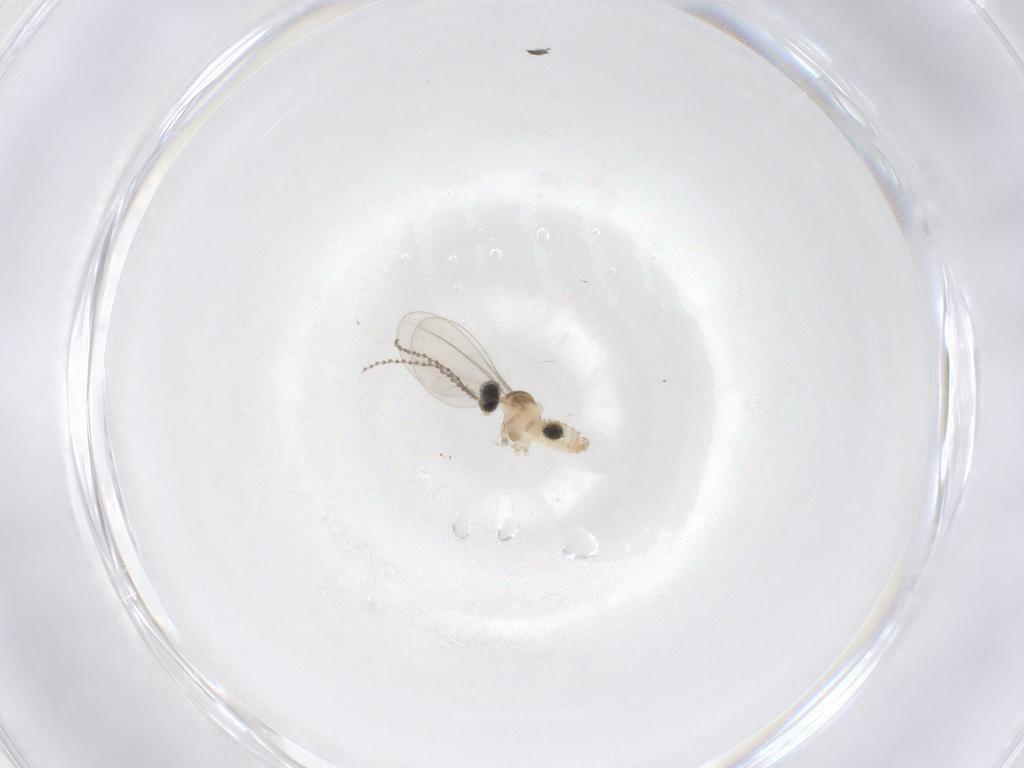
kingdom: Animalia
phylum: Arthropoda
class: Insecta
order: Diptera
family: Cecidomyiidae
